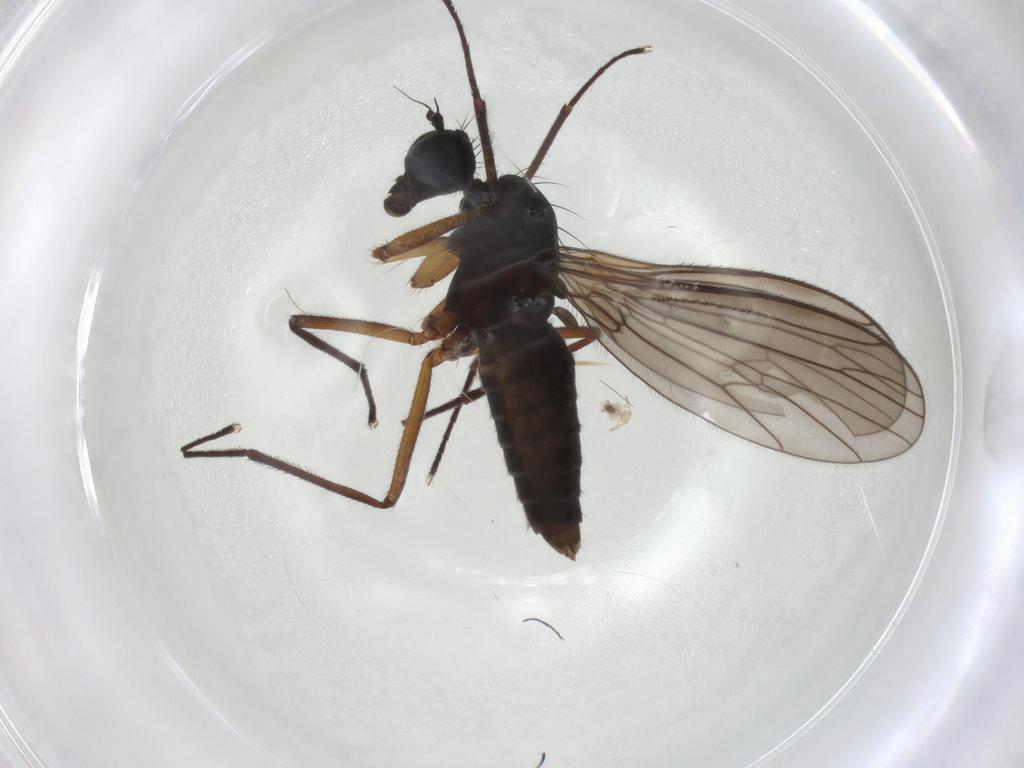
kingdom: Animalia
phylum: Arthropoda
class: Insecta
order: Diptera
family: Empididae
